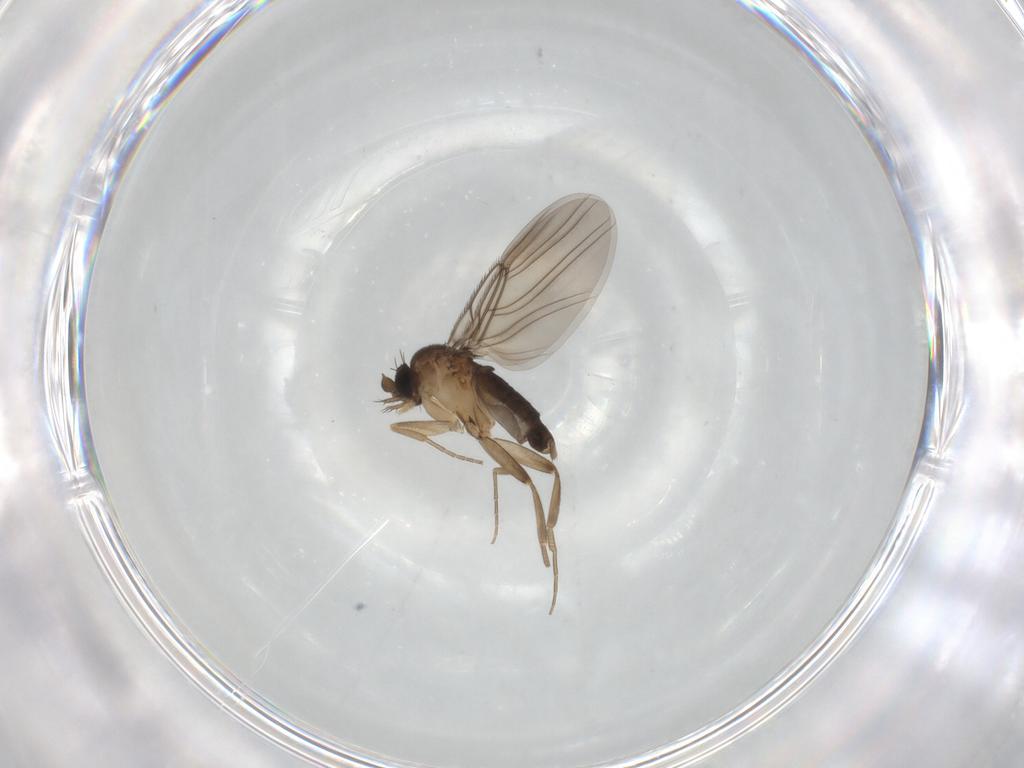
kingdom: Animalia
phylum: Arthropoda
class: Insecta
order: Diptera
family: Phoridae
